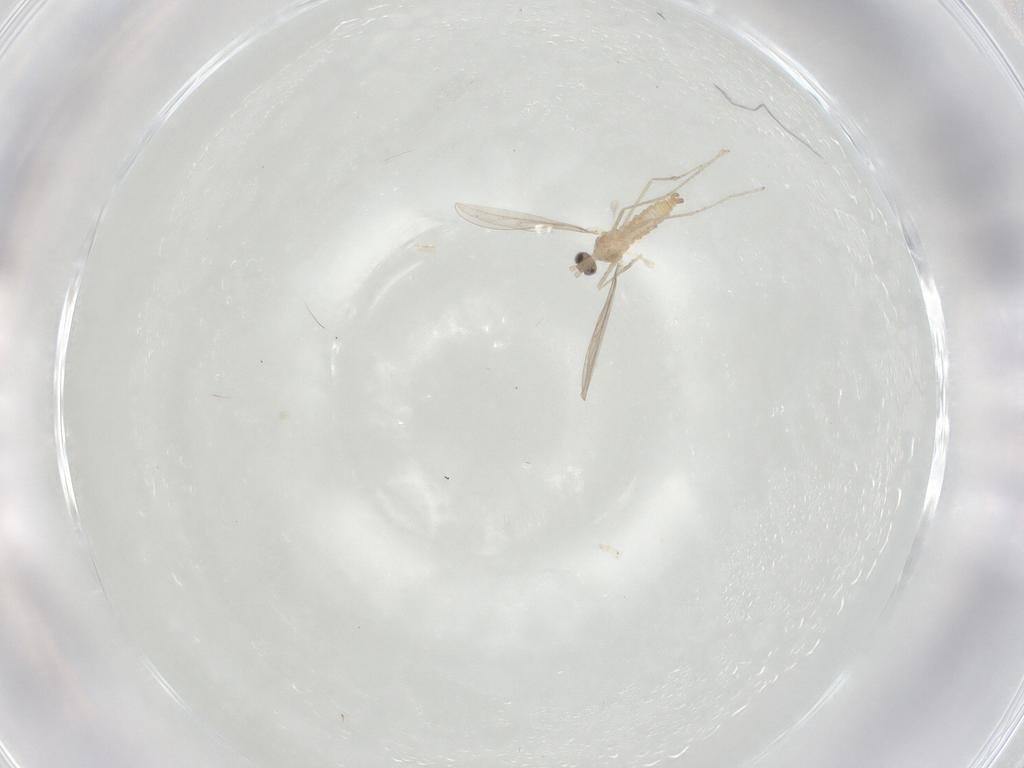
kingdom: Animalia
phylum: Arthropoda
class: Insecta
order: Diptera
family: Cecidomyiidae
